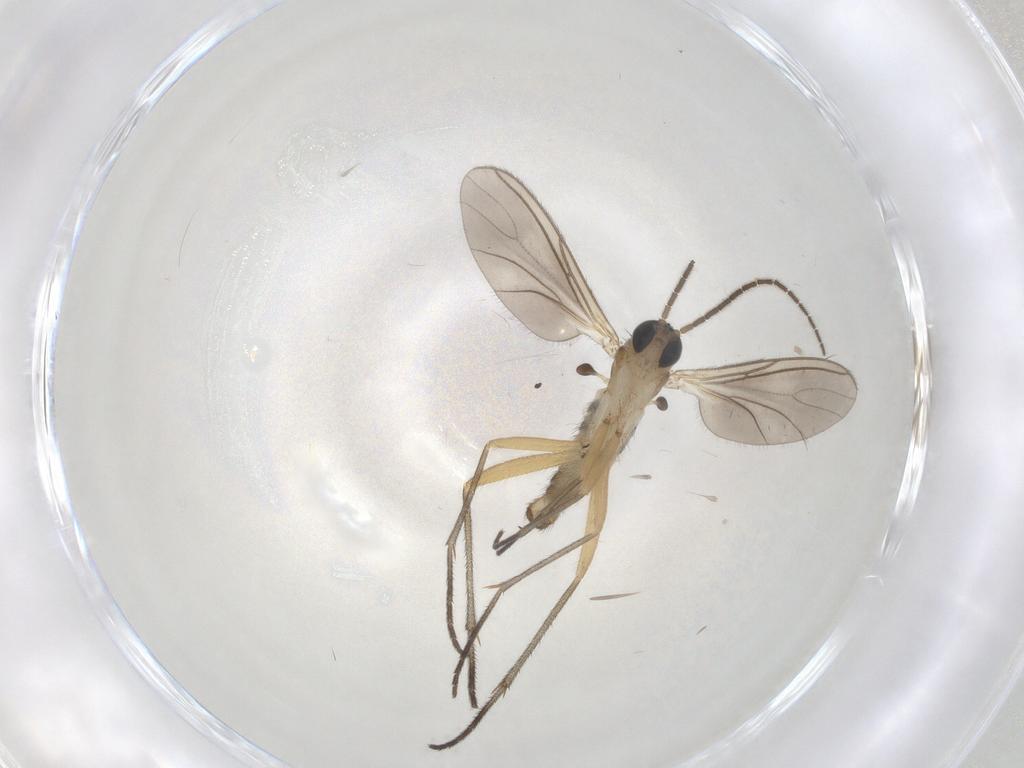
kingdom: Animalia
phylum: Arthropoda
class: Insecta
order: Diptera
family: Sciaridae
